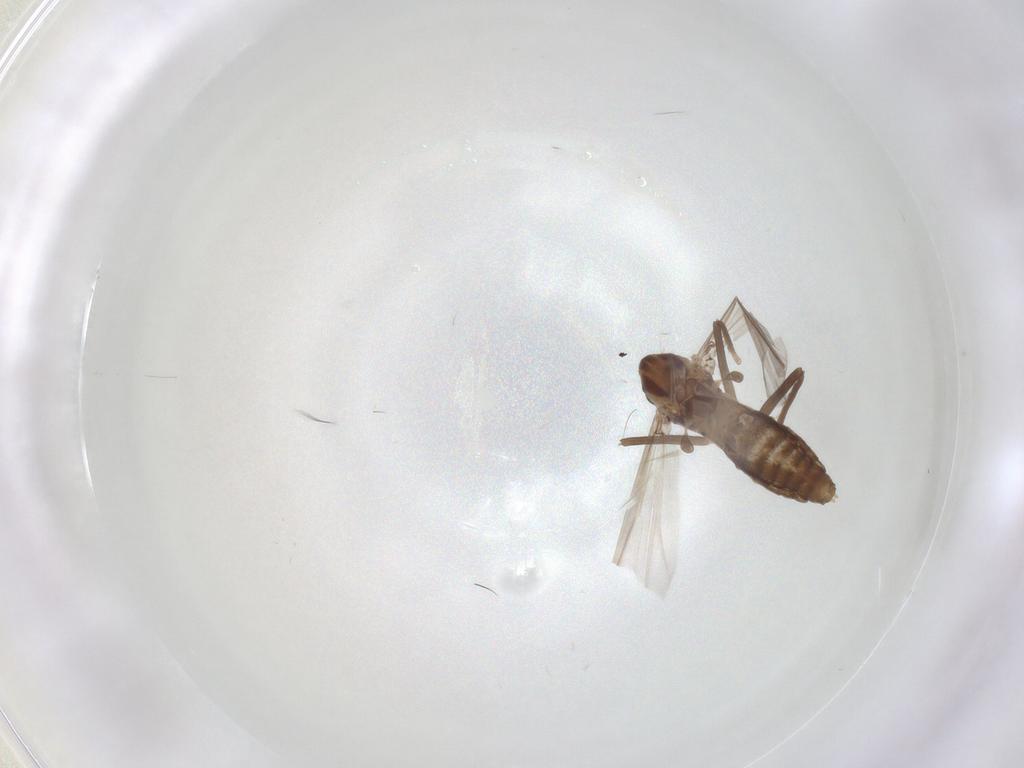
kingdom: Animalia
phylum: Arthropoda
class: Insecta
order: Diptera
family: Chironomidae
